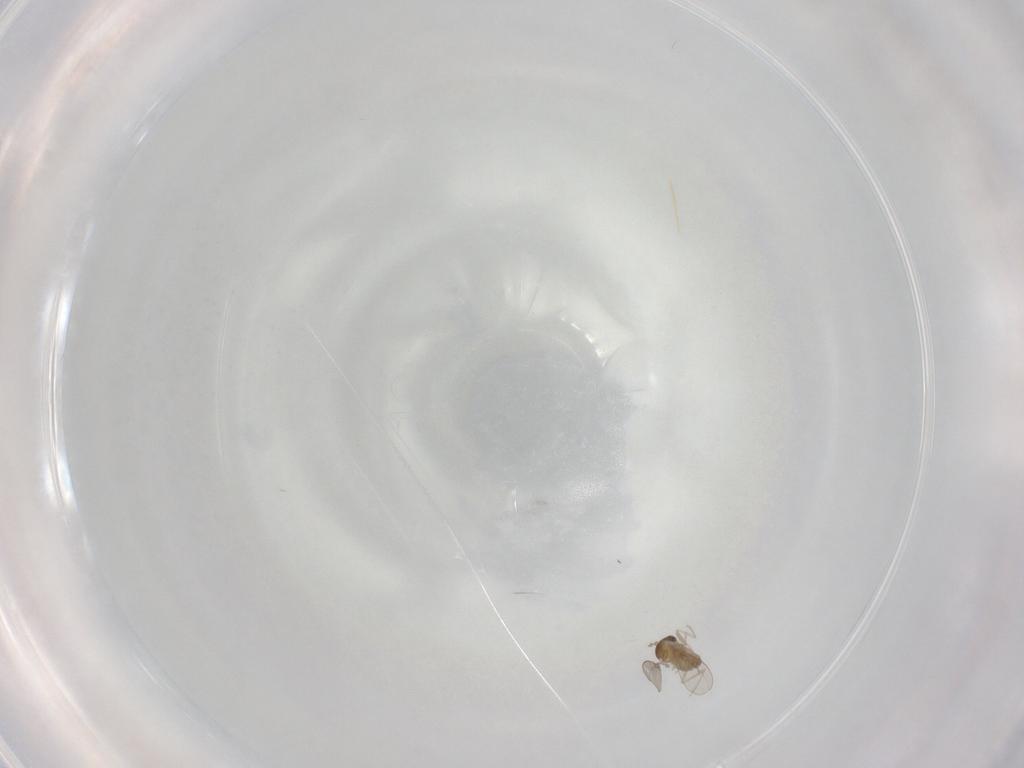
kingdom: Animalia
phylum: Arthropoda
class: Insecta
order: Diptera
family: Cecidomyiidae
